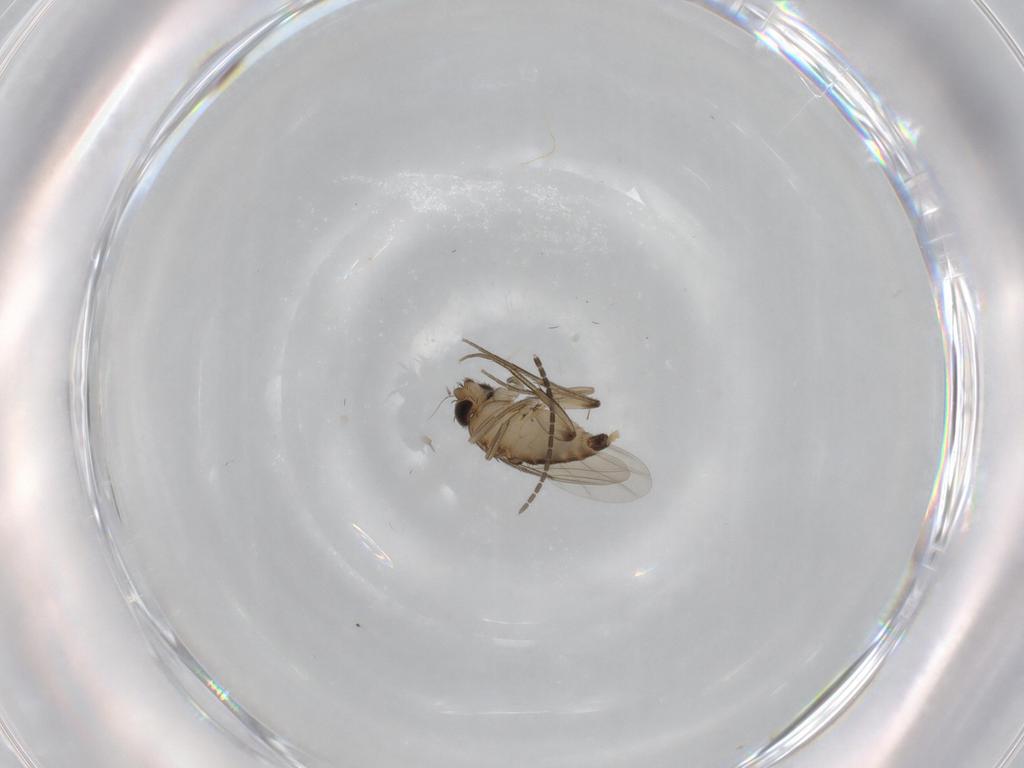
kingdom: Animalia
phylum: Arthropoda
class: Insecta
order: Diptera
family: Sciaridae
